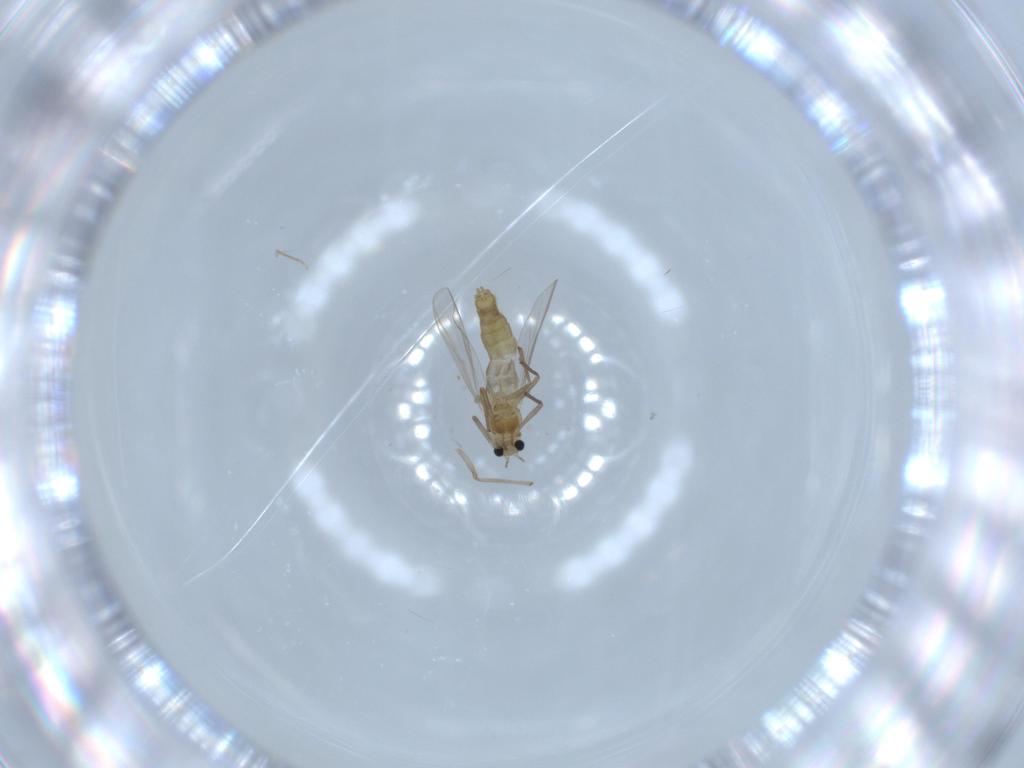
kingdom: Animalia
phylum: Arthropoda
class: Insecta
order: Diptera
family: Chironomidae
